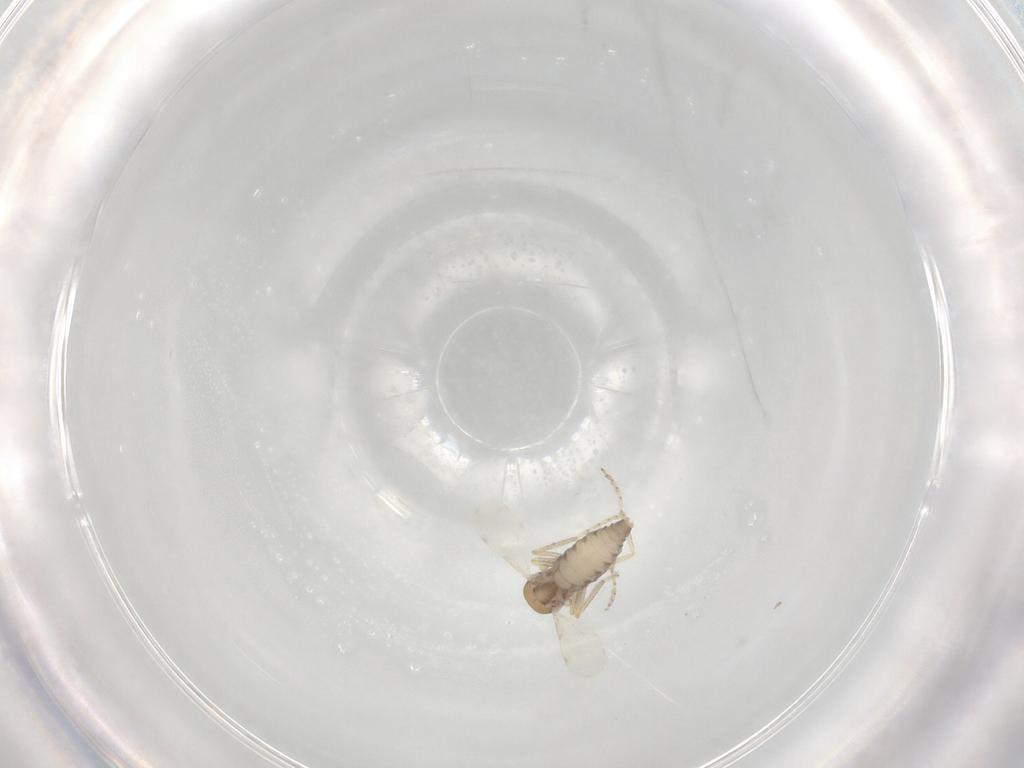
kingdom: Animalia
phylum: Arthropoda
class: Insecta
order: Diptera
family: Ceratopogonidae
